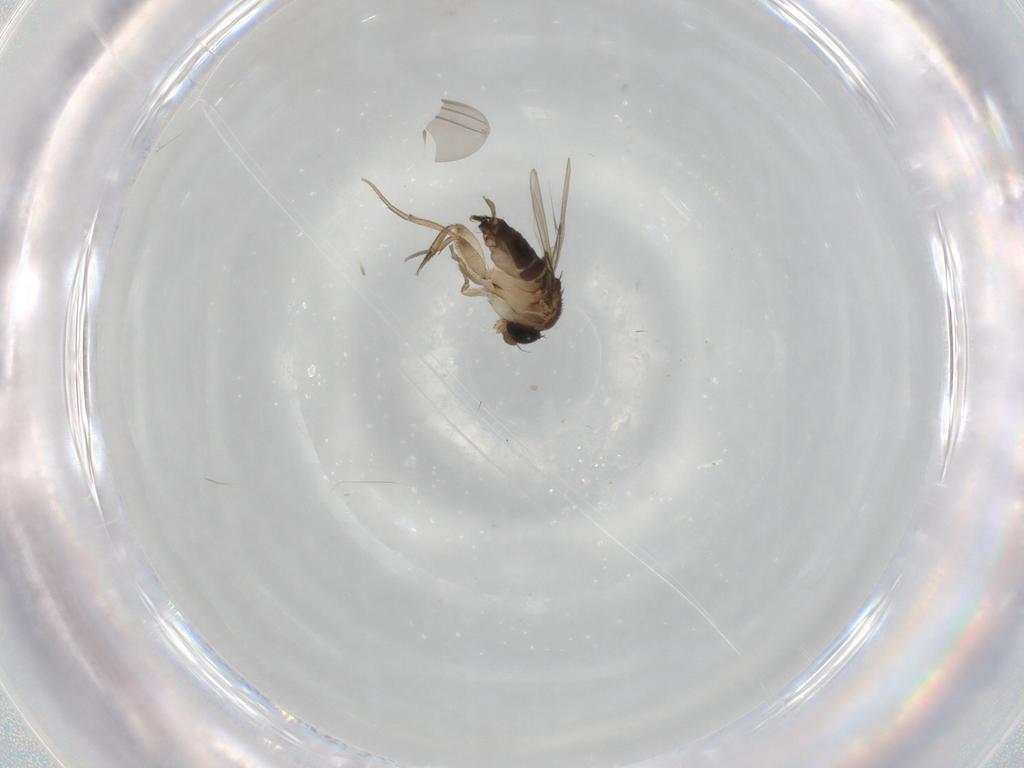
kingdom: Animalia
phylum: Arthropoda
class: Insecta
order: Diptera
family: Phoridae
